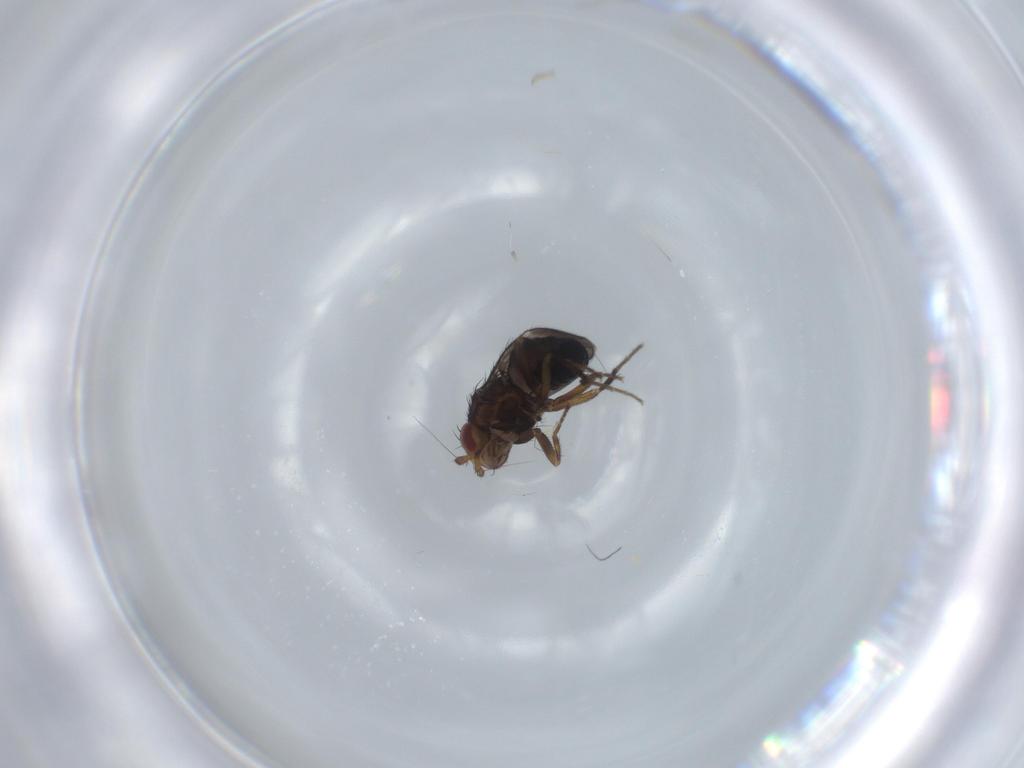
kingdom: Animalia
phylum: Arthropoda
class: Insecta
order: Diptera
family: Sphaeroceridae
